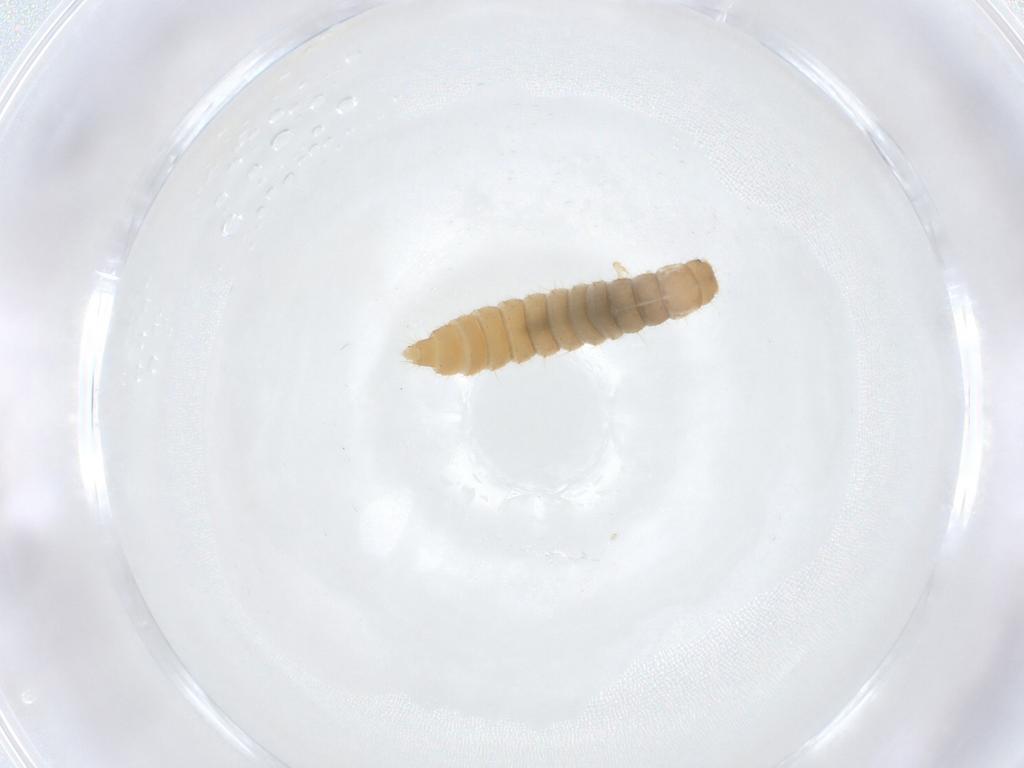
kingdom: Animalia
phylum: Arthropoda
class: Insecta
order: Coleoptera
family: Staphylinidae
